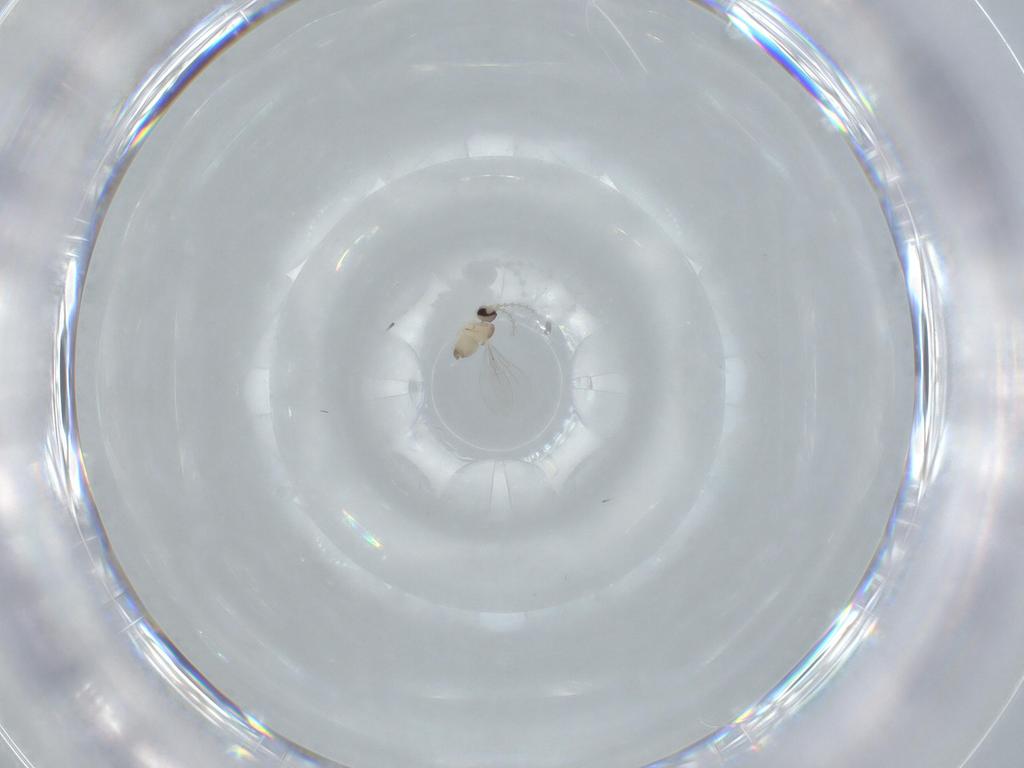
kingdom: Animalia
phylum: Arthropoda
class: Insecta
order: Diptera
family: Cecidomyiidae
